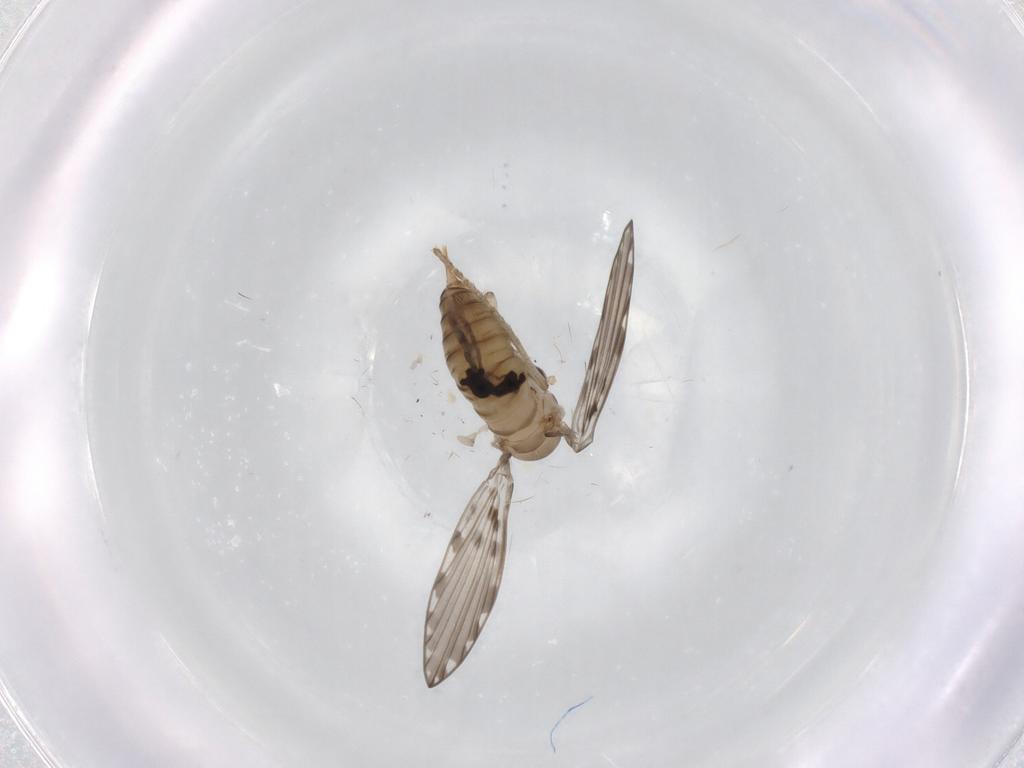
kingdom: Animalia
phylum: Arthropoda
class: Insecta
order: Diptera
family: Psychodidae
